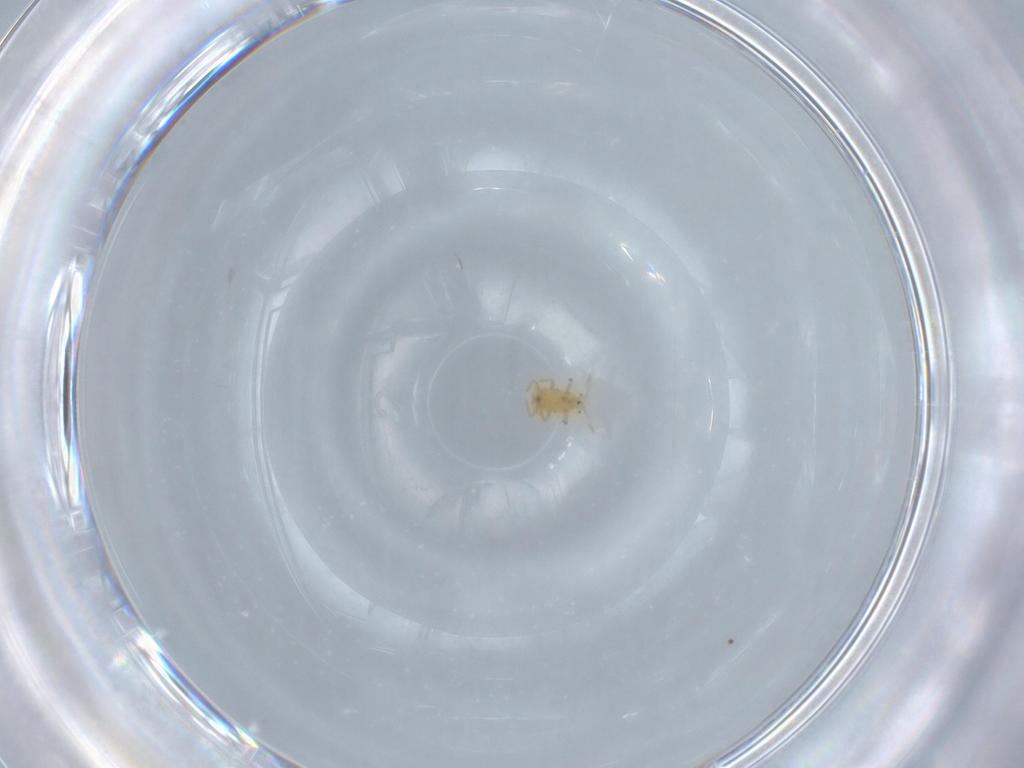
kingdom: Animalia
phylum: Arthropoda
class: Insecta
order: Hemiptera
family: Pseudococcidae
